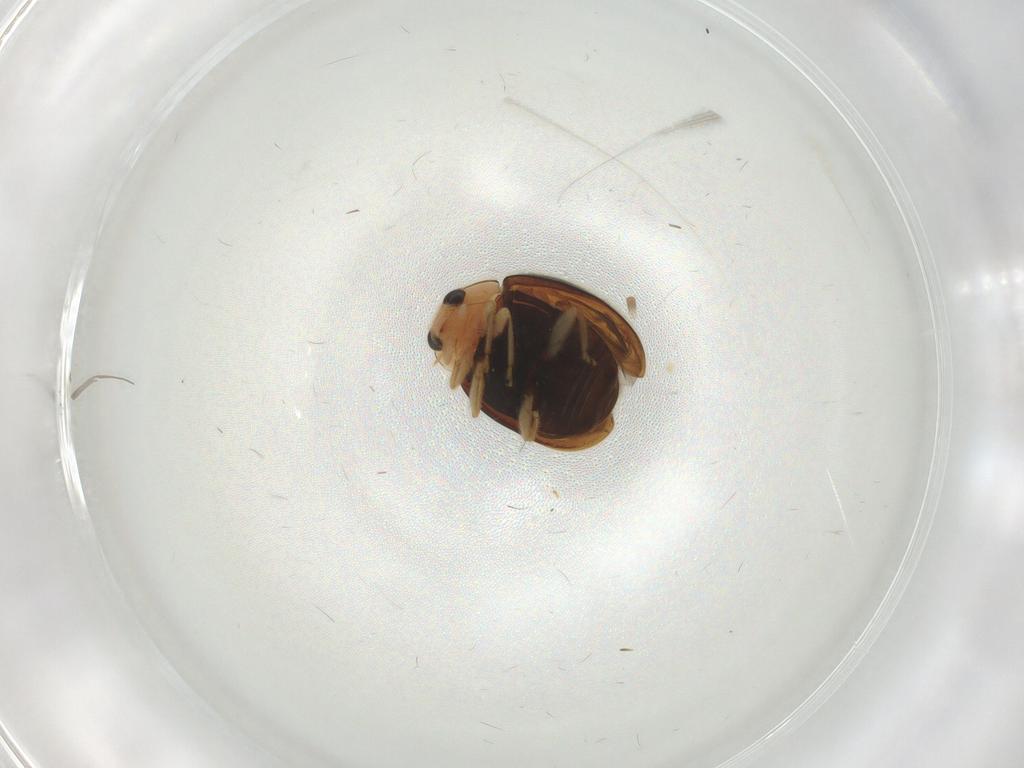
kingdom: Animalia
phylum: Arthropoda
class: Insecta
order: Coleoptera
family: Coccinellidae
